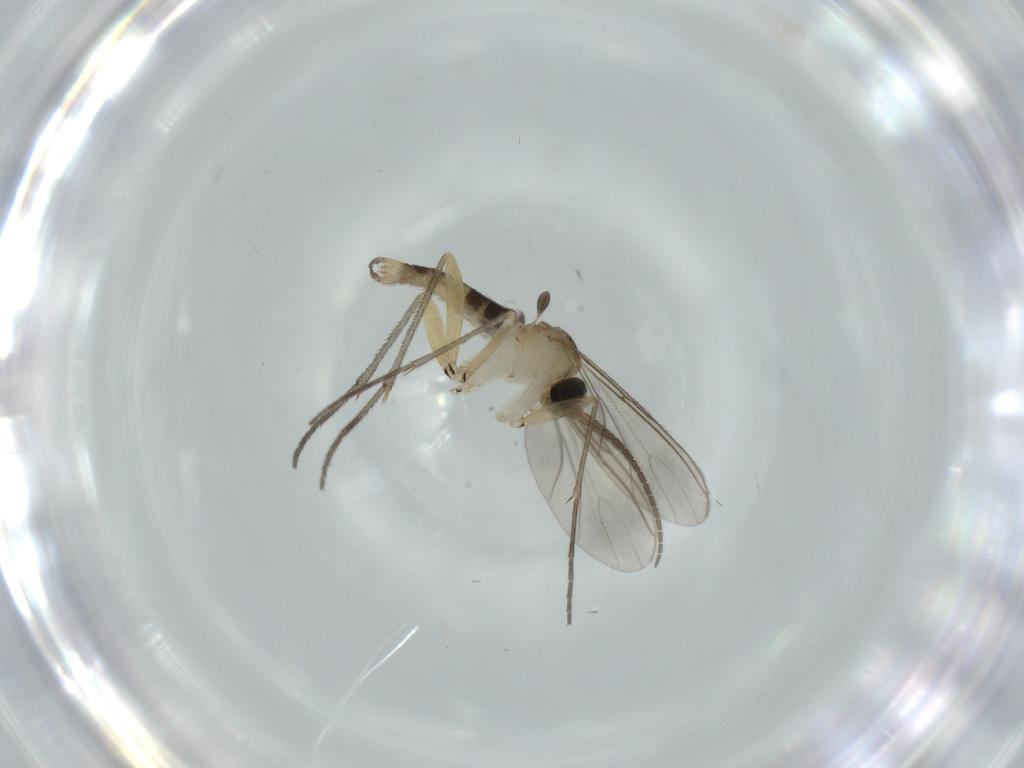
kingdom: Animalia
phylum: Arthropoda
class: Insecta
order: Diptera
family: Sciaridae
